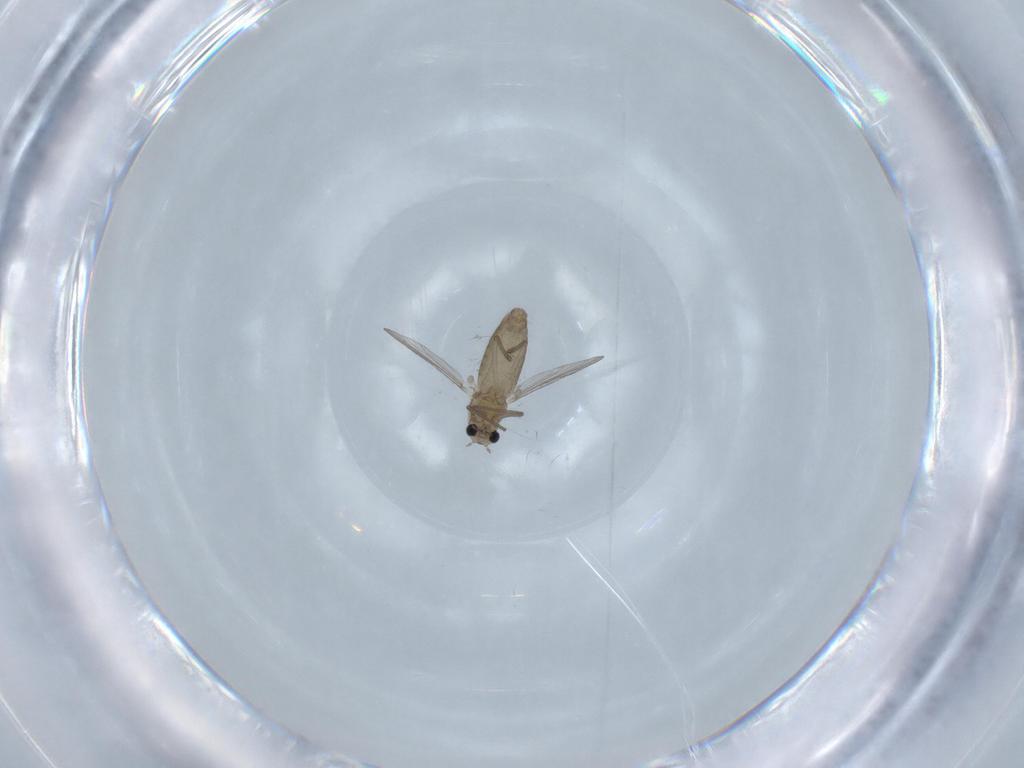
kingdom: Animalia
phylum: Arthropoda
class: Insecta
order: Diptera
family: Chironomidae
